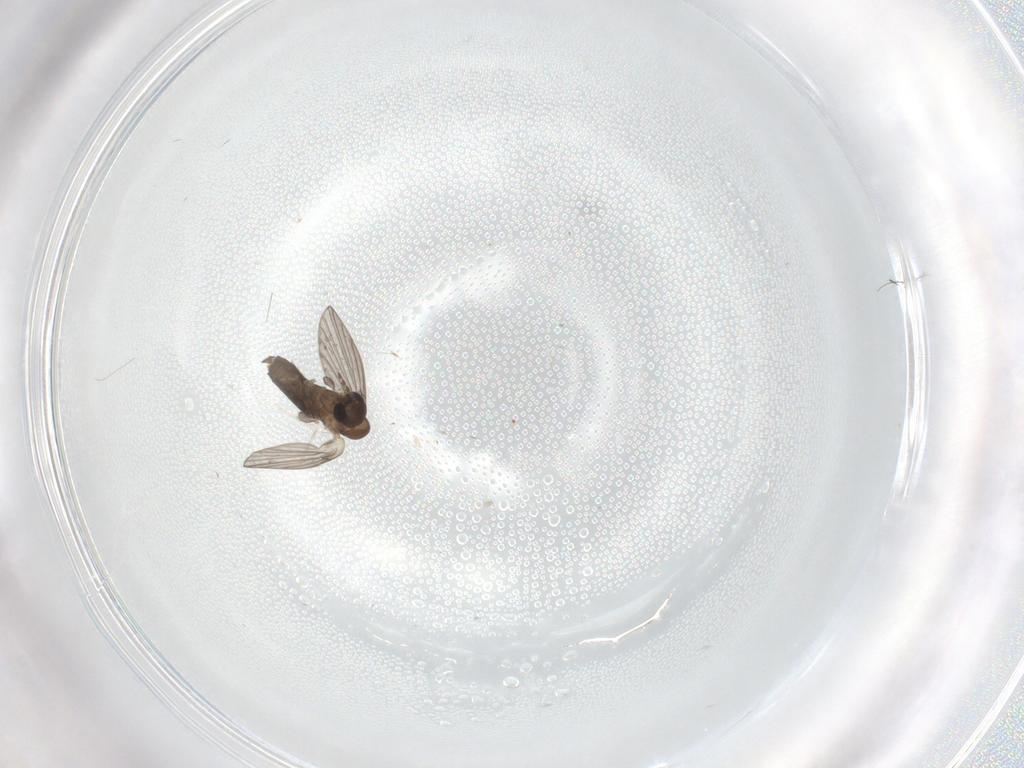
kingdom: Animalia
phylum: Arthropoda
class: Insecta
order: Diptera
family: Cecidomyiidae
